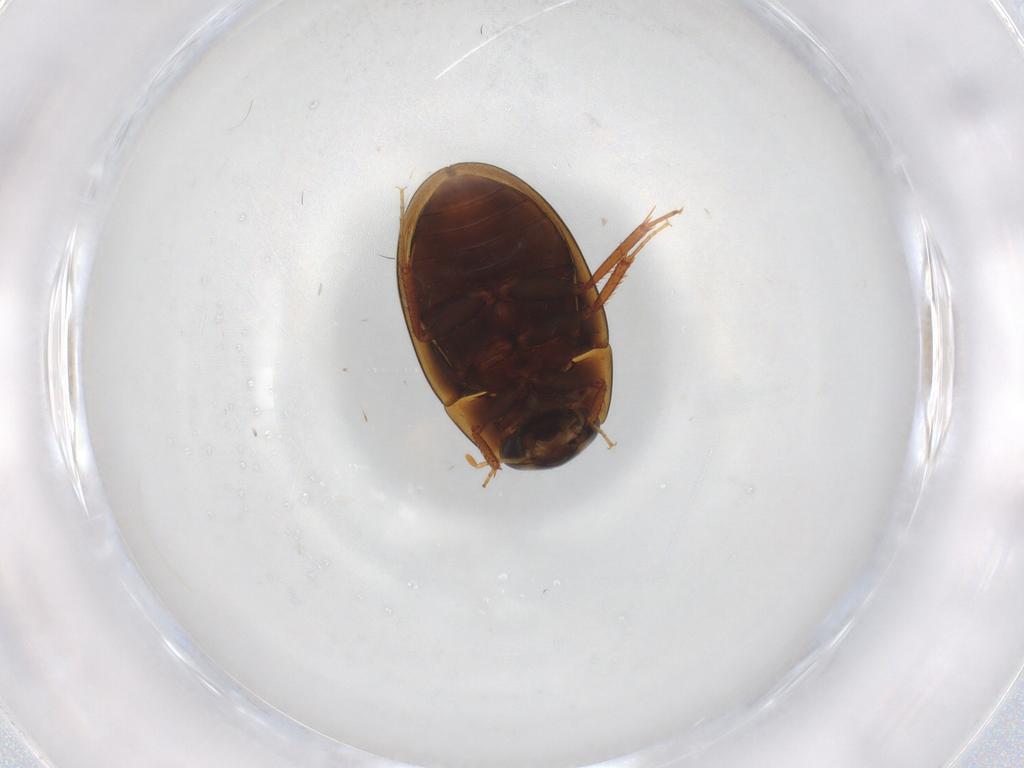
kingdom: Animalia
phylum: Arthropoda
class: Insecta
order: Coleoptera
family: Hydrophilidae
